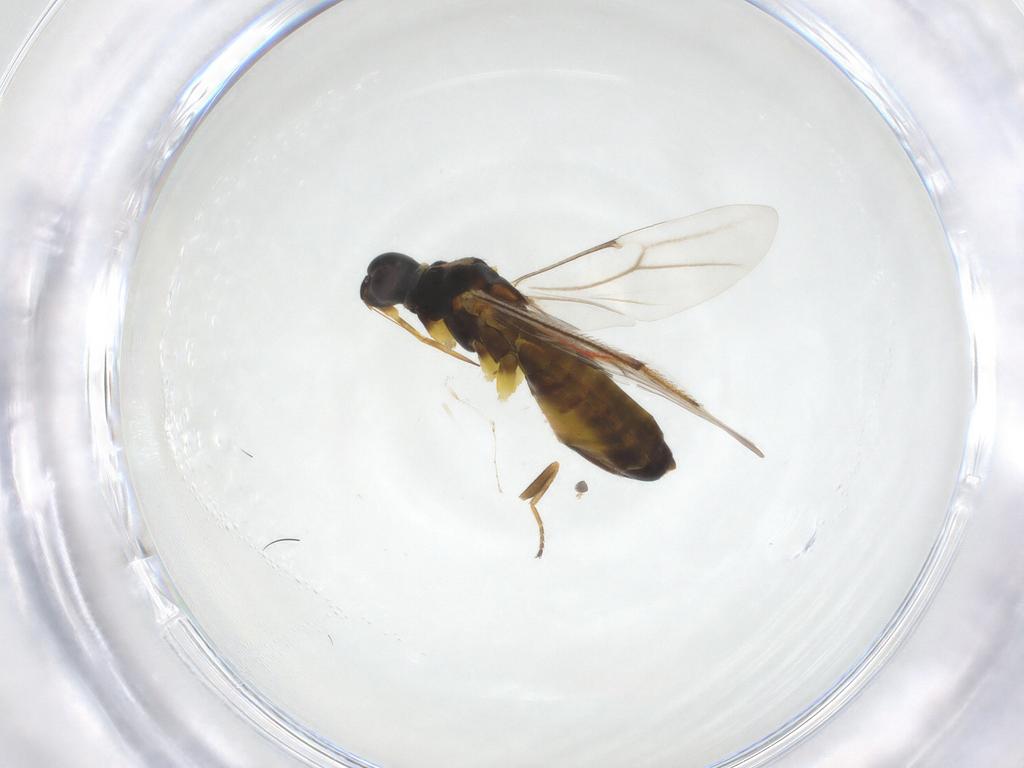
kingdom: Animalia
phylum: Arthropoda
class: Insecta
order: Hemiptera
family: Miridae
